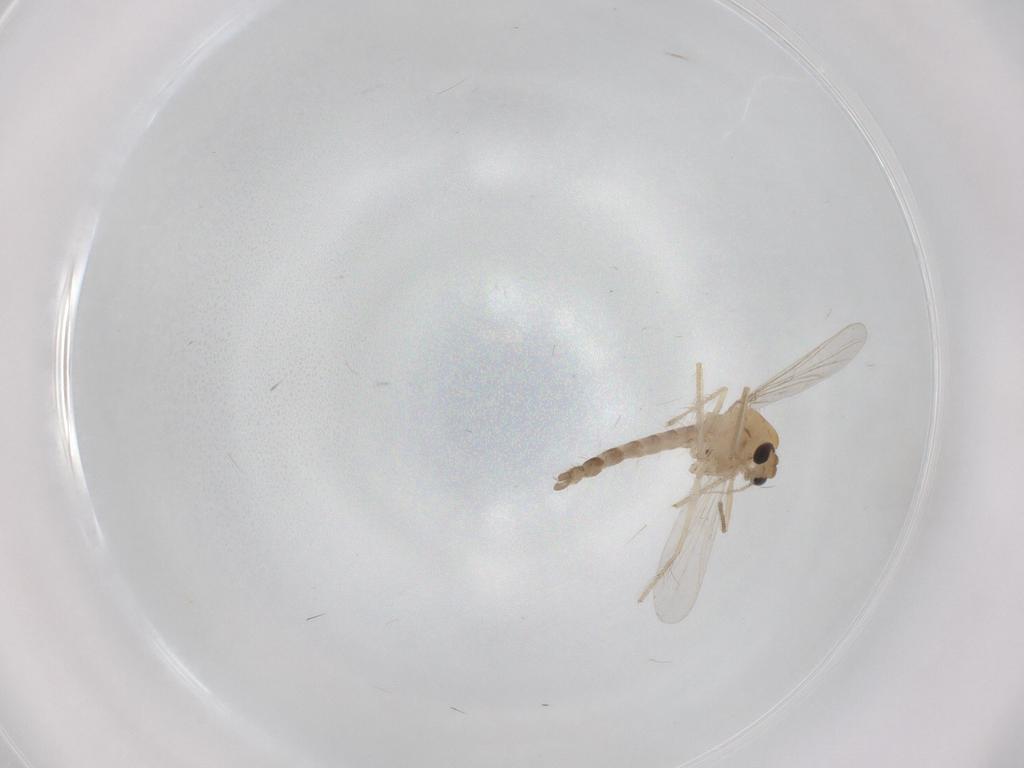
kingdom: Animalia
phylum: Arthropoda
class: Insecta
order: Diptera
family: Chironomidae
